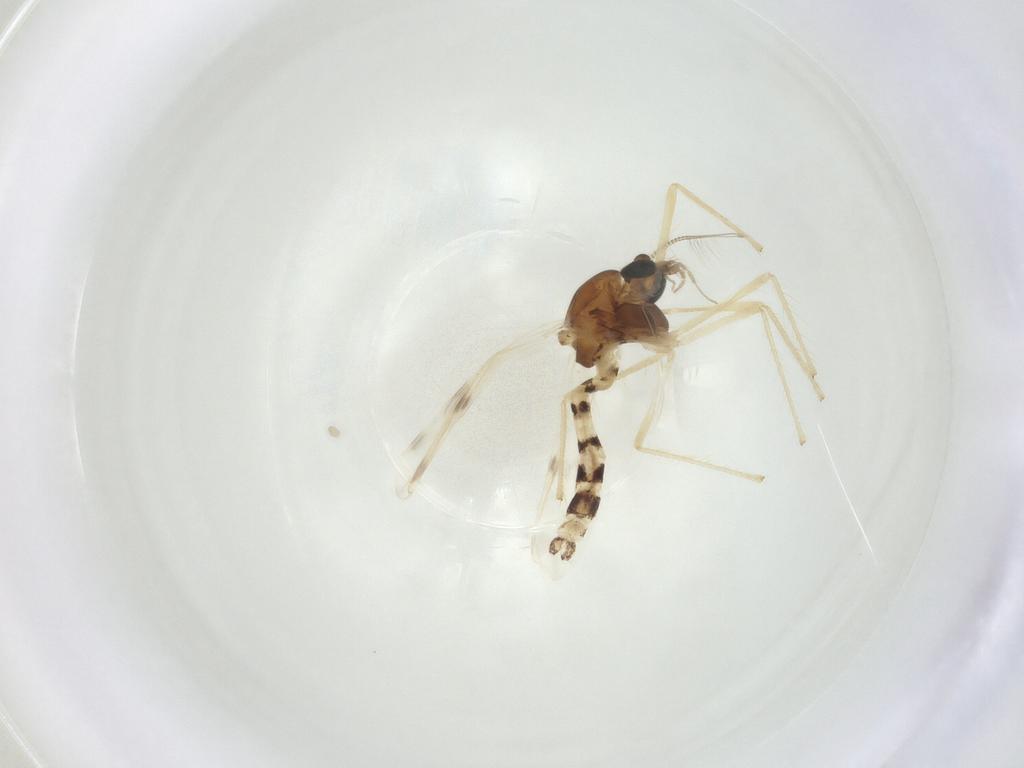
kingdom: Animalia
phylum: Arthropoda
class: Insecta
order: Diptera
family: Chironomidae
